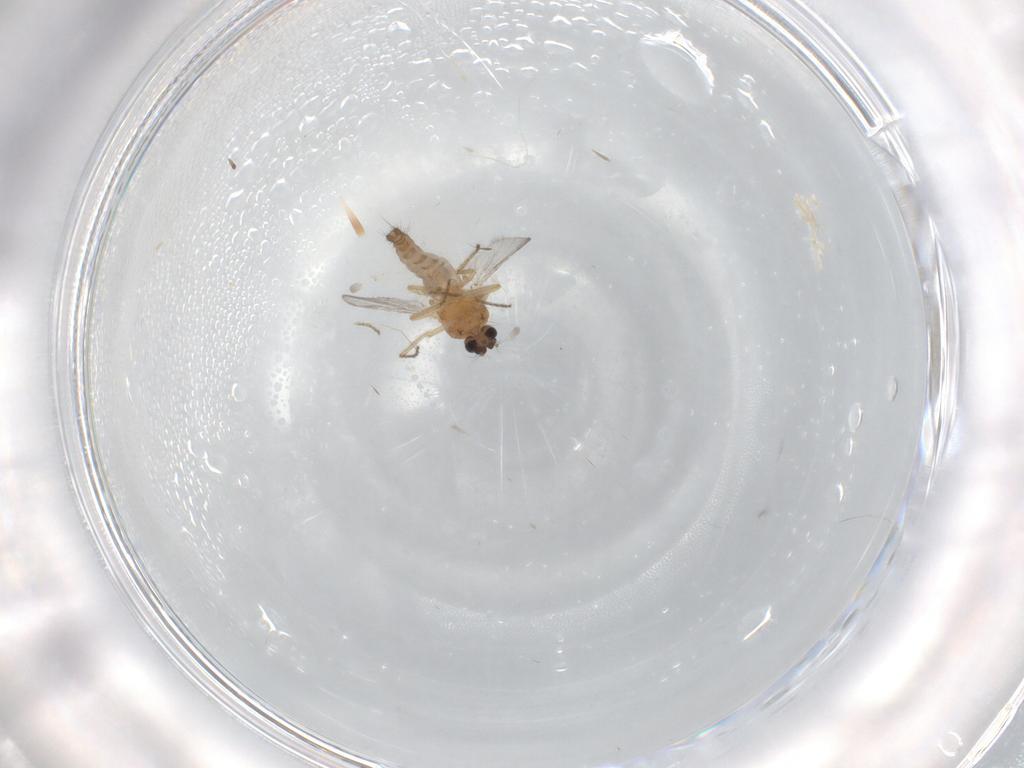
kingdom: Animalia
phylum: Arthropoda
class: Insecta
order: Diptera
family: Ceratopogonidae
